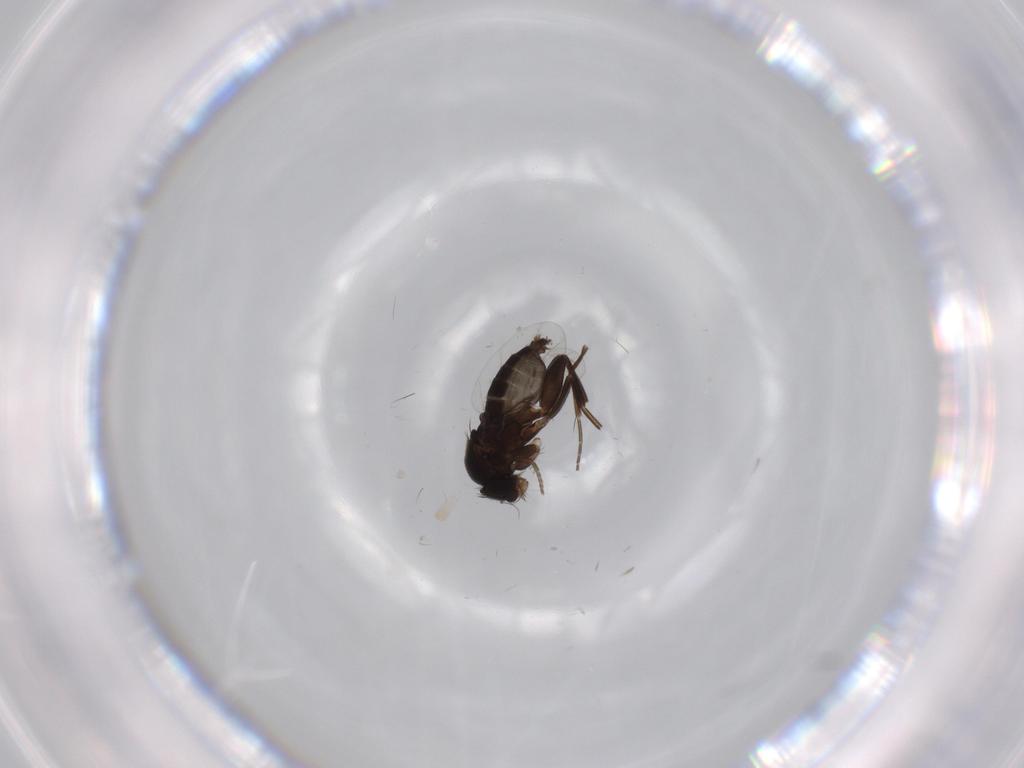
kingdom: Animalia
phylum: Arthropoda
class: Insecta
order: Diptera
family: Phoridae
